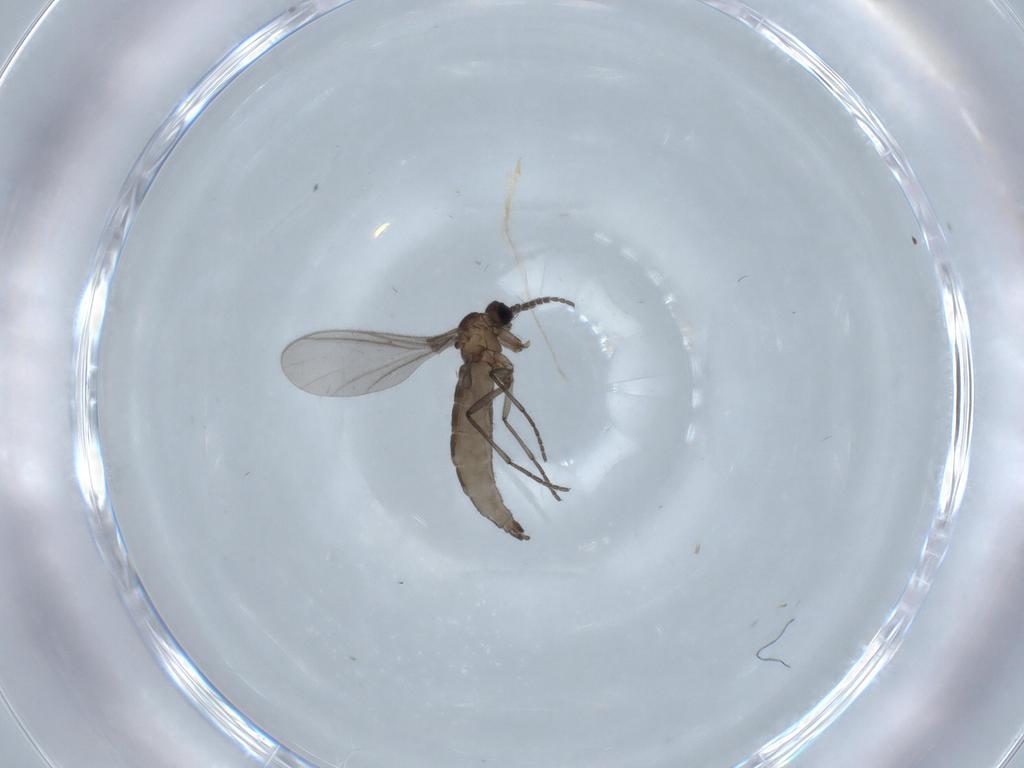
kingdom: Animalia
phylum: Arthropoda
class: Insecta
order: Diptera
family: Sciaridae
